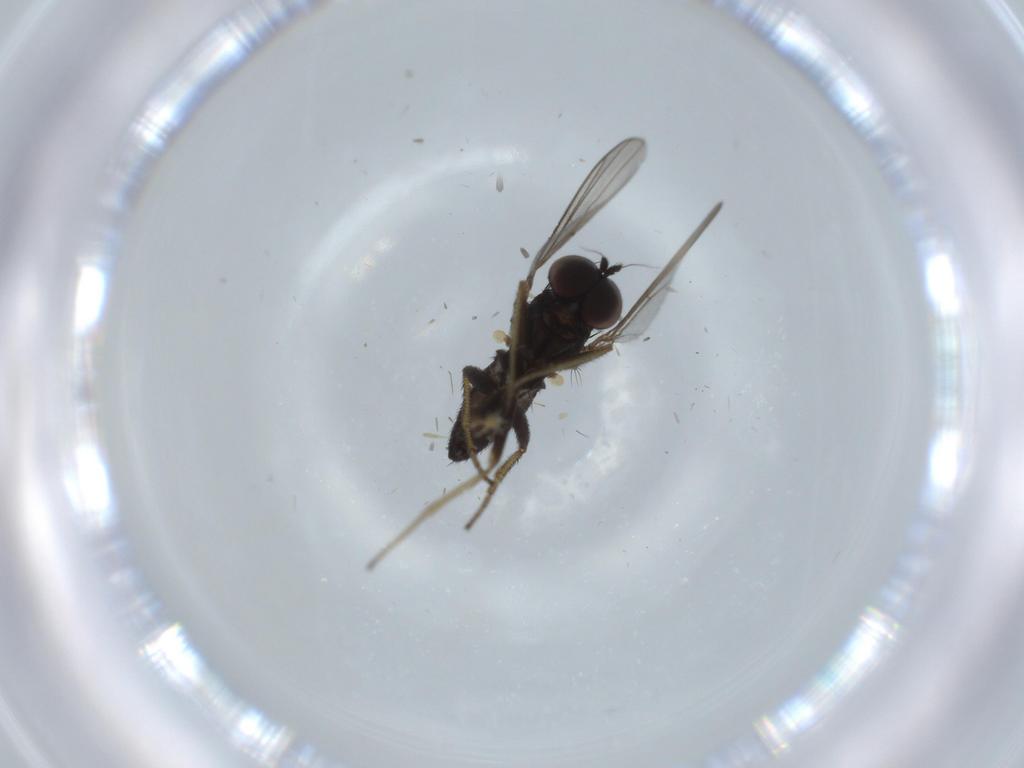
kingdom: Animalia
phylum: Arthropoda
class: Insecta
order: Diptera
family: Dolichopodidae
